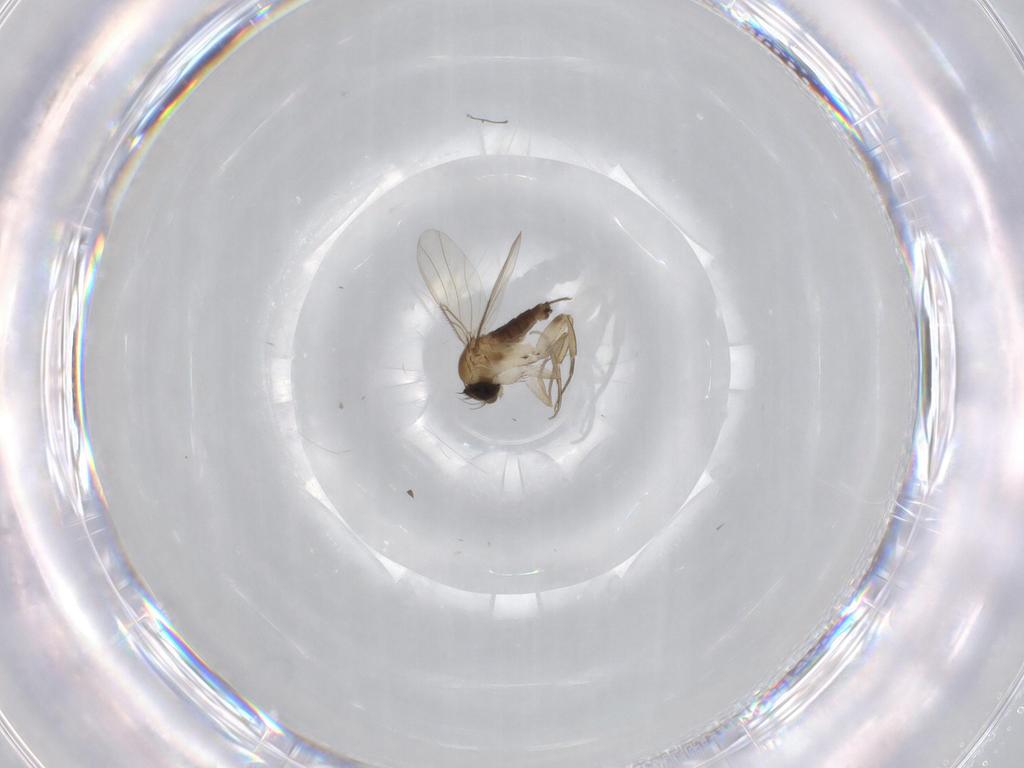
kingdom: Animalia
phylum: Arthropoda
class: Insecta
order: Diptera
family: Phoridae
